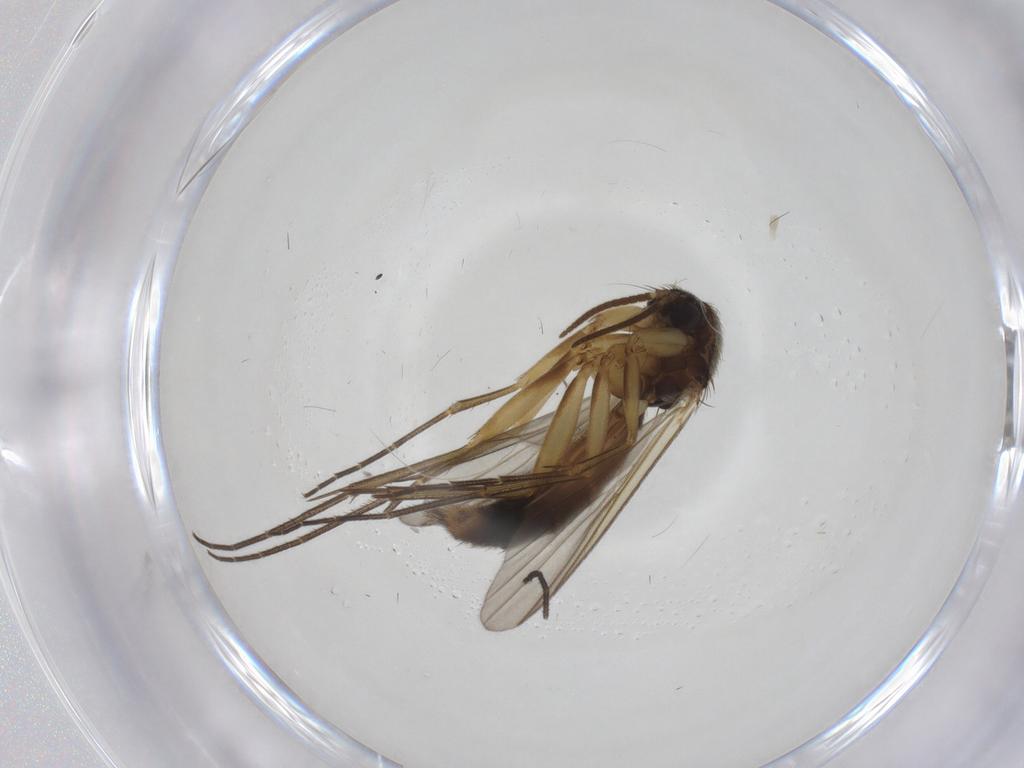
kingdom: Animalia
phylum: Arthropoda
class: Insecta
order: Diptera
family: Mycetophilidae
